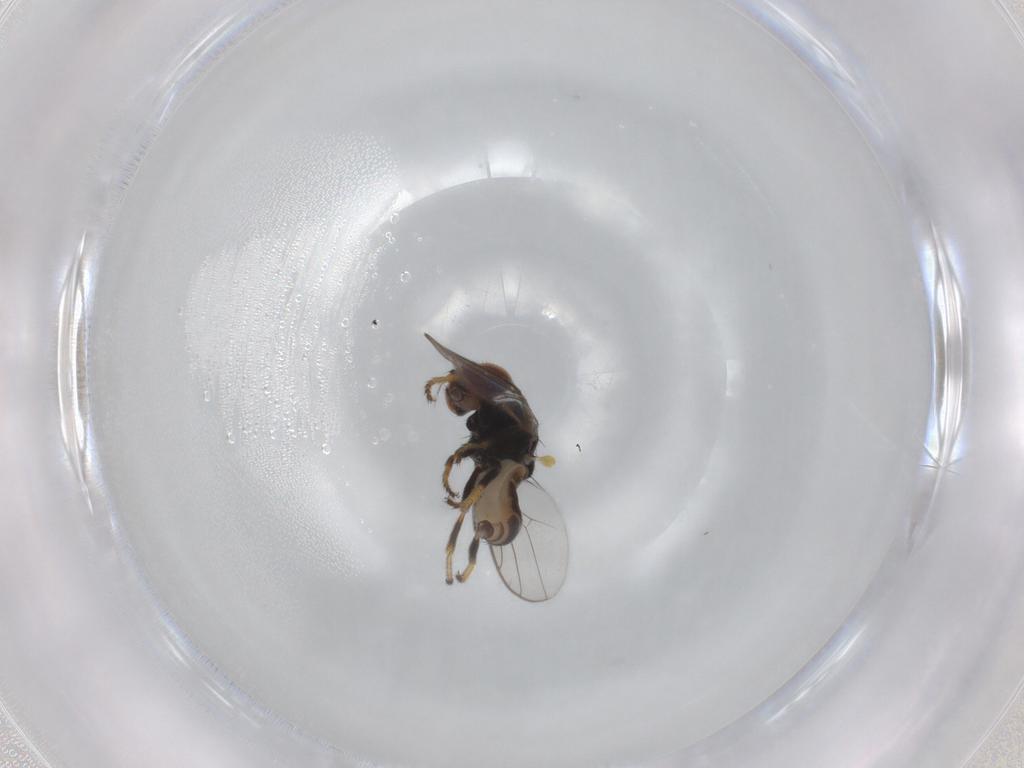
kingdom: Animalia
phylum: Arthropoda
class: Insecta
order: Diptera
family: Chloropidae
